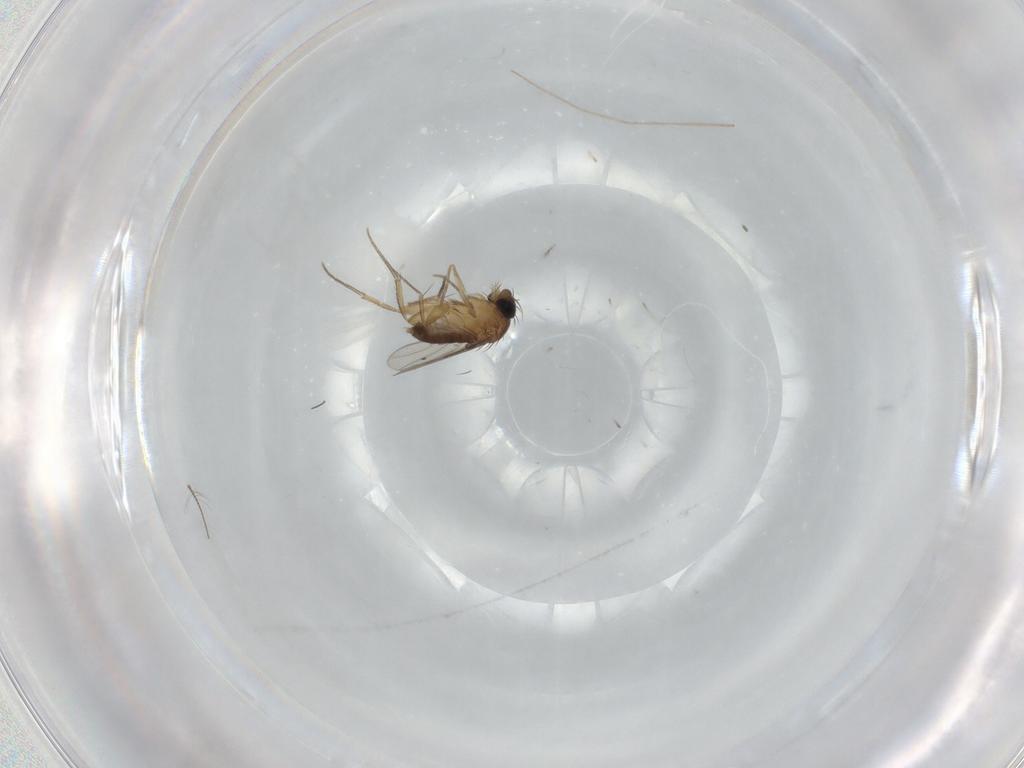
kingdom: Animalia
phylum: Arthropoda
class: Insecta
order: Diptera
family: Phoridae
